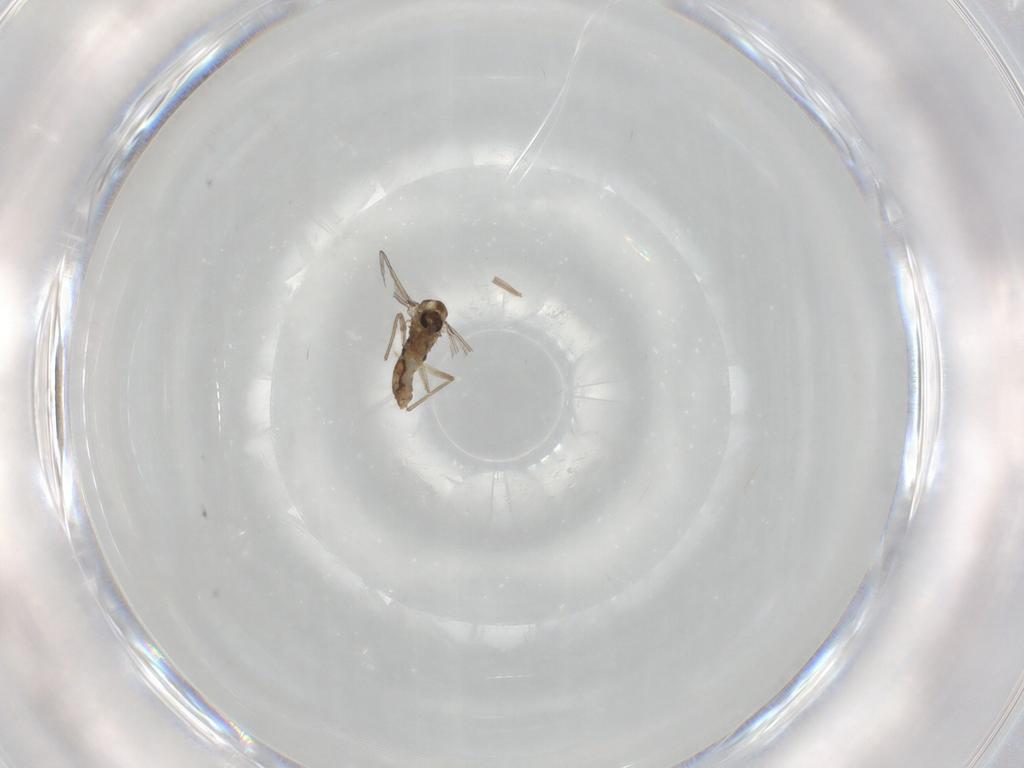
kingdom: Animalia
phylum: Arthropoda
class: Insecta
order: Diptera
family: Chironomidae
